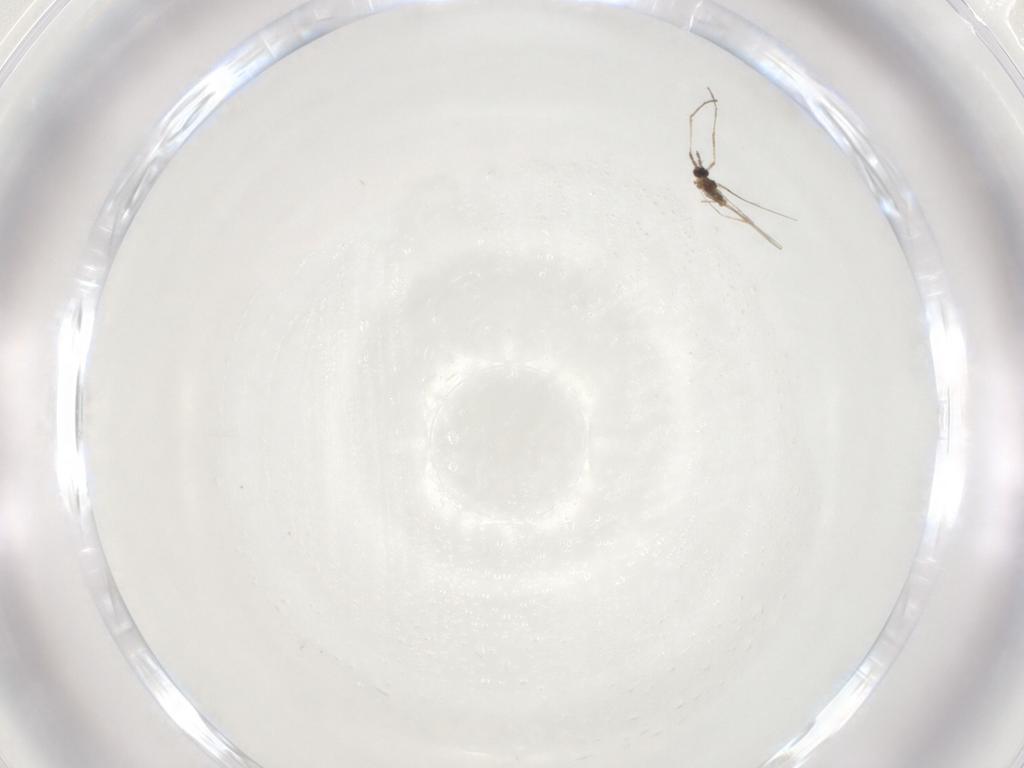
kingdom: Animalia
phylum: Arthropoda
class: Insecta
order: Diptera
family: Cecidomyiidae
